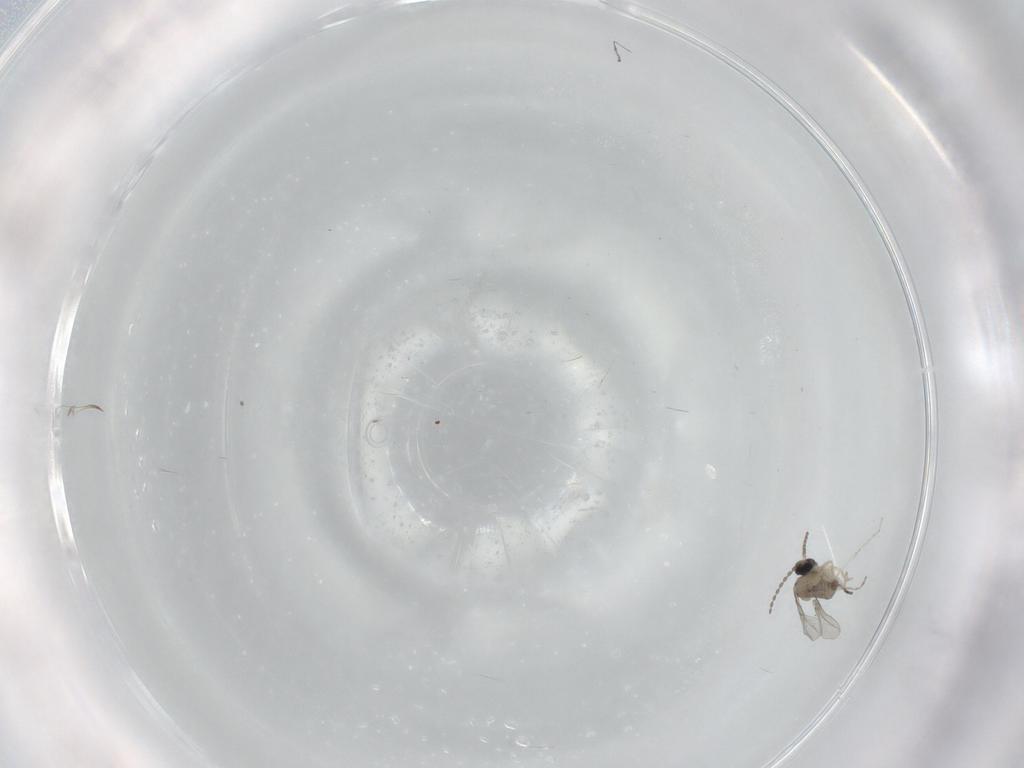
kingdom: Animalia
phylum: Arthropoda
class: Insecta
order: Diptera
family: Cecidomyiidae
